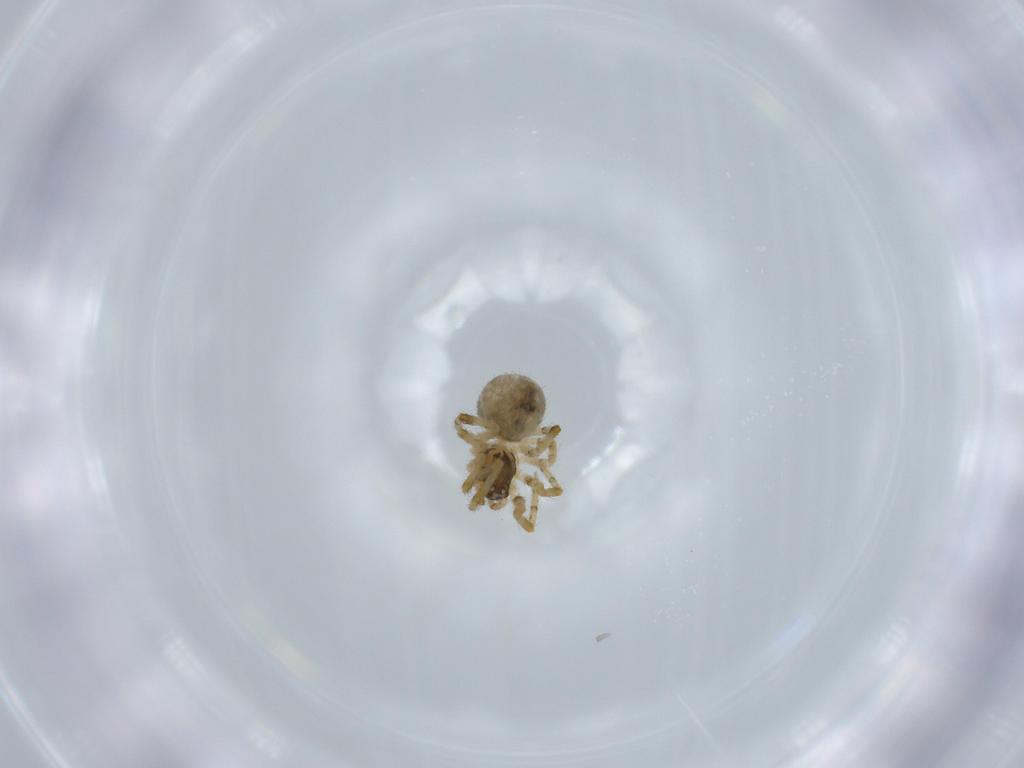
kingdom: Animalia
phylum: Arthropoda
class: Arachnida
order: Araneae
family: Theridiidae
